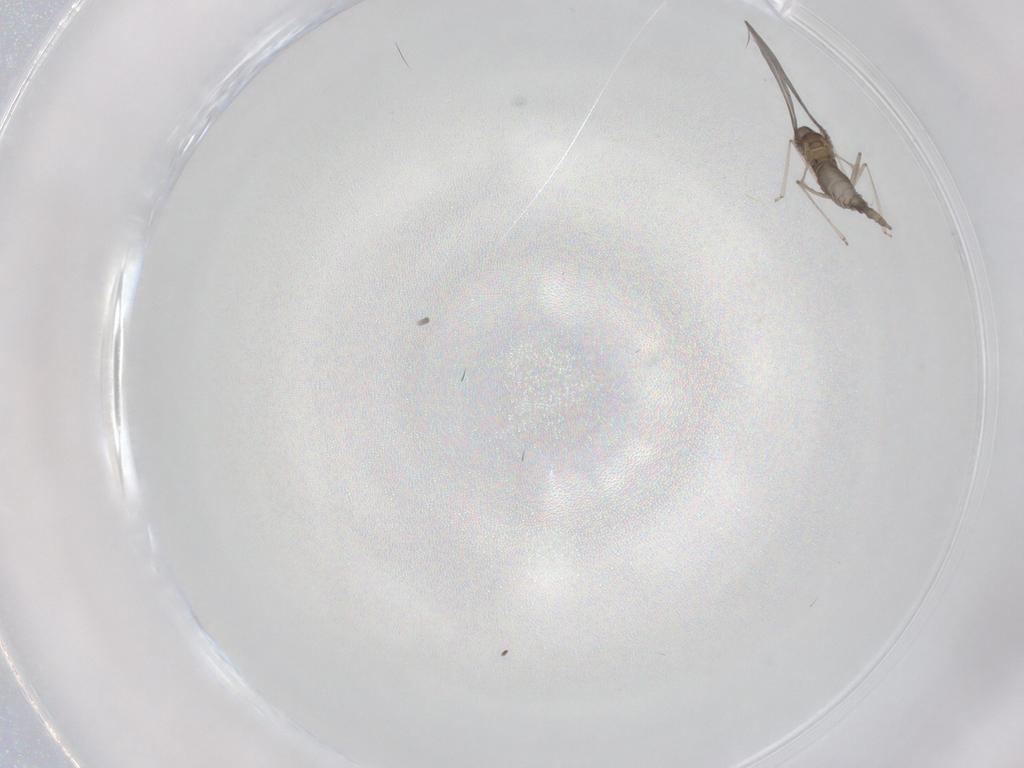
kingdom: Animalia
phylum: Arthropoda
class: Insecta
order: Diptera
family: Cecidomyiidae
